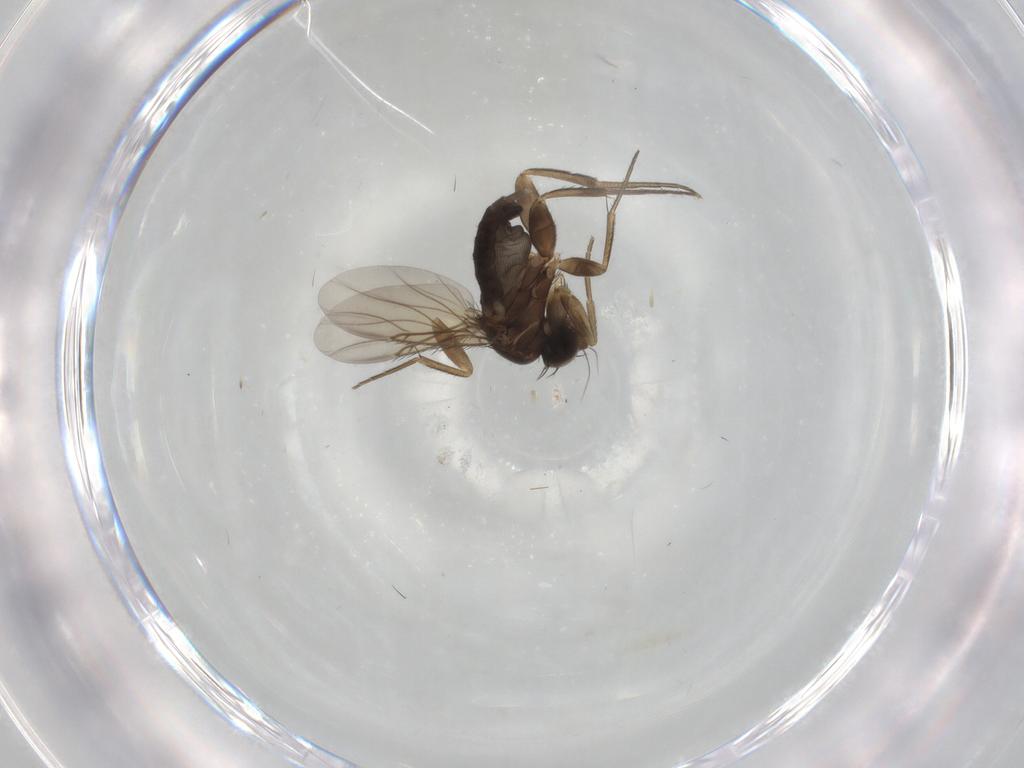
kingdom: Animalia
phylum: Arthropoda
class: Insecta
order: Diptera
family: Phoridae
